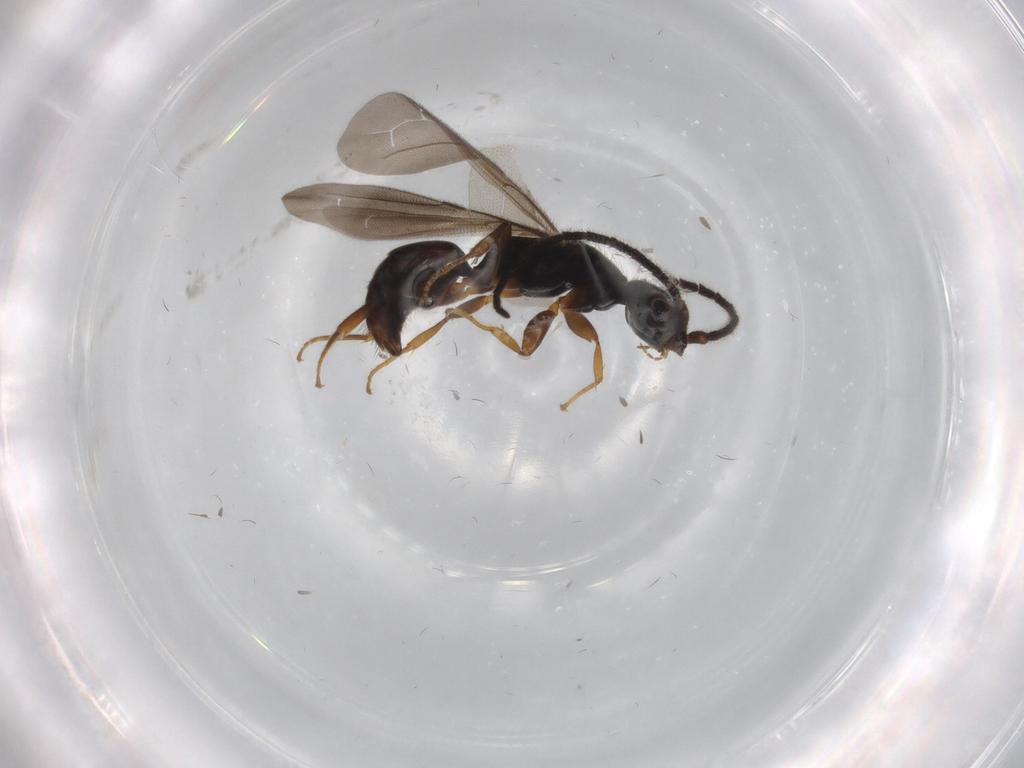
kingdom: Animalia
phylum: Arthropoda
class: Insecta
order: Hymenoptera
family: Bethylidae
